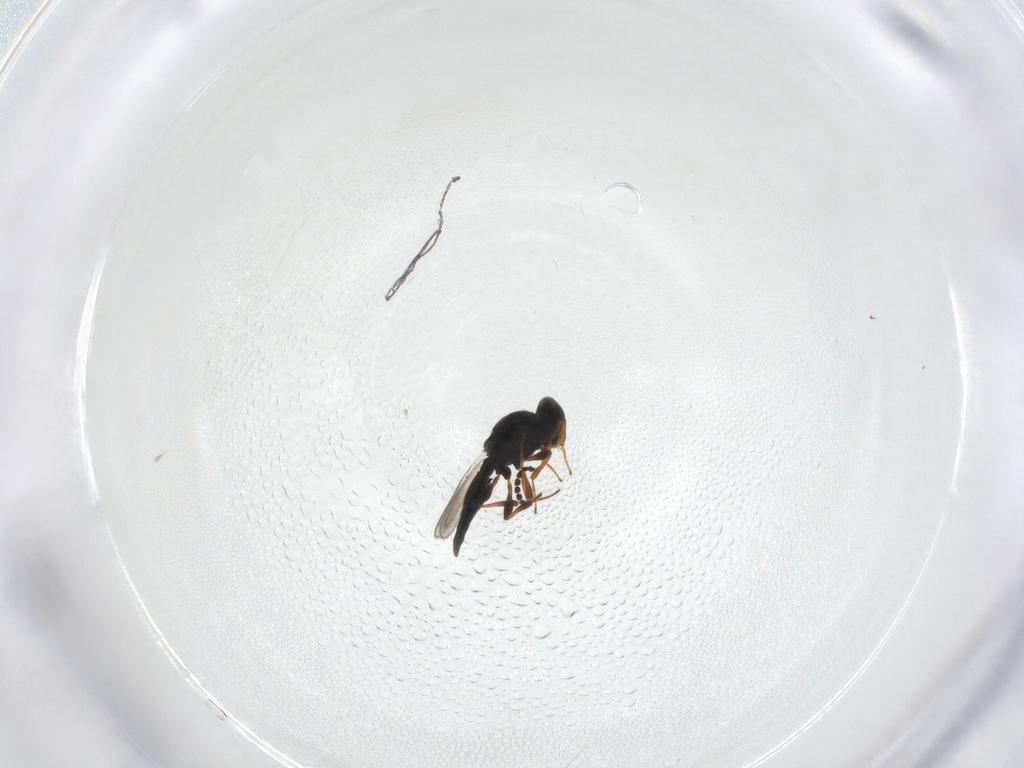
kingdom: Animalia
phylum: Arthropoda
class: Insecta
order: Hymenoptera
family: Platygastridae
